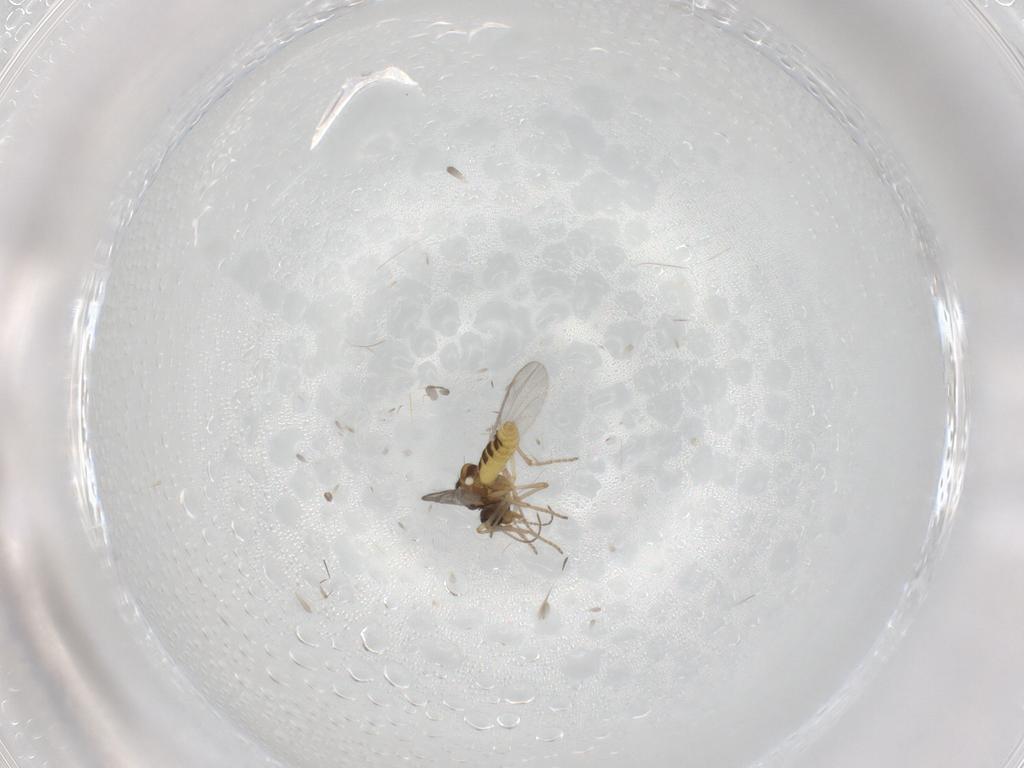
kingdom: Animalia
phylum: Arthropoda
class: Insecta
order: Diptera
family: Ceratopogonidae
